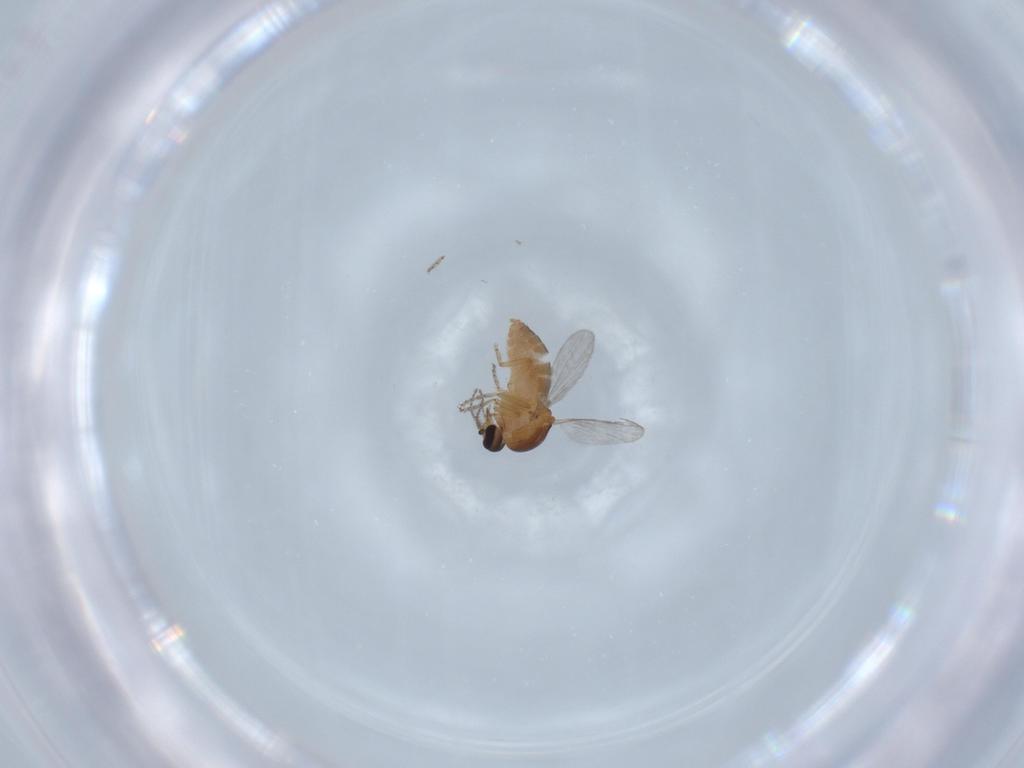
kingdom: Animalia
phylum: Arthropoda
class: Insecta
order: Diptera
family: Ceratopogonidae
